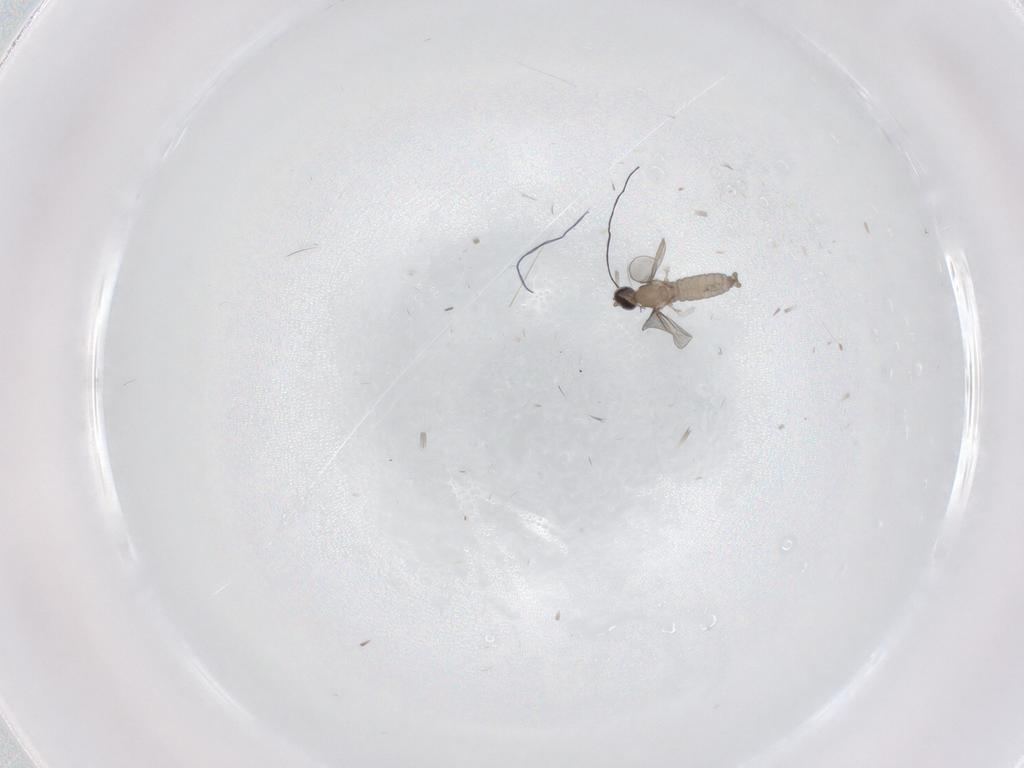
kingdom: Animalia
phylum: Arthropoda
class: Insecta
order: Diptera
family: Cecidomyiidae
